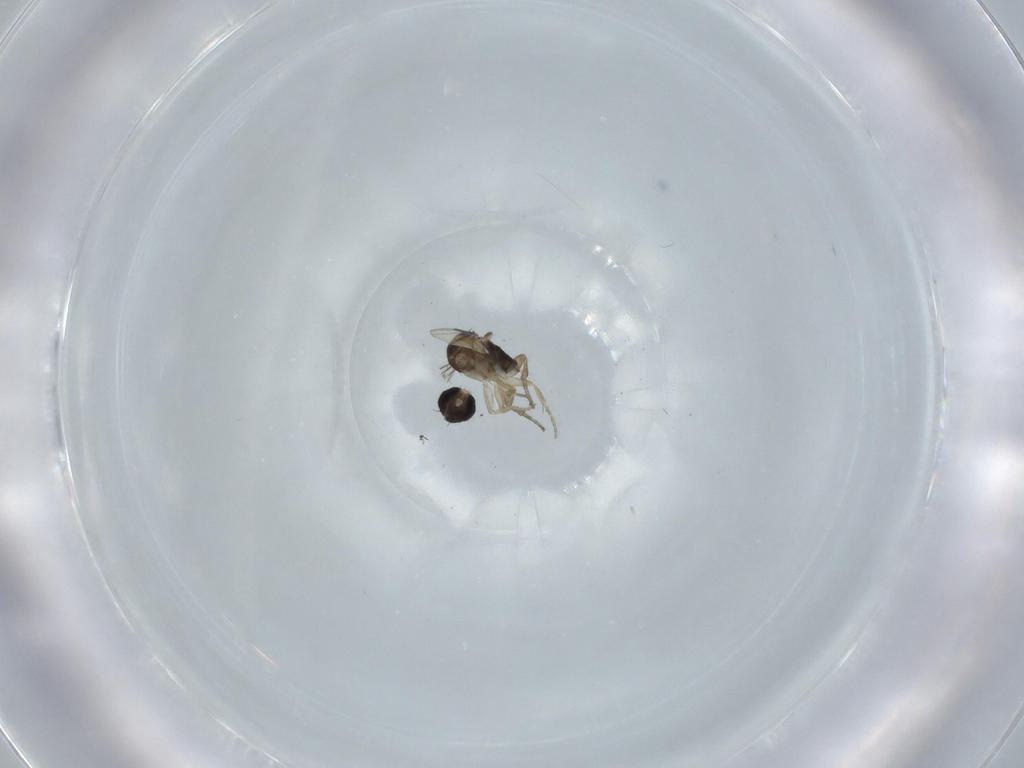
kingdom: Animalia
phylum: Arthropoda
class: Insecta
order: Diptera
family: Phoridae
